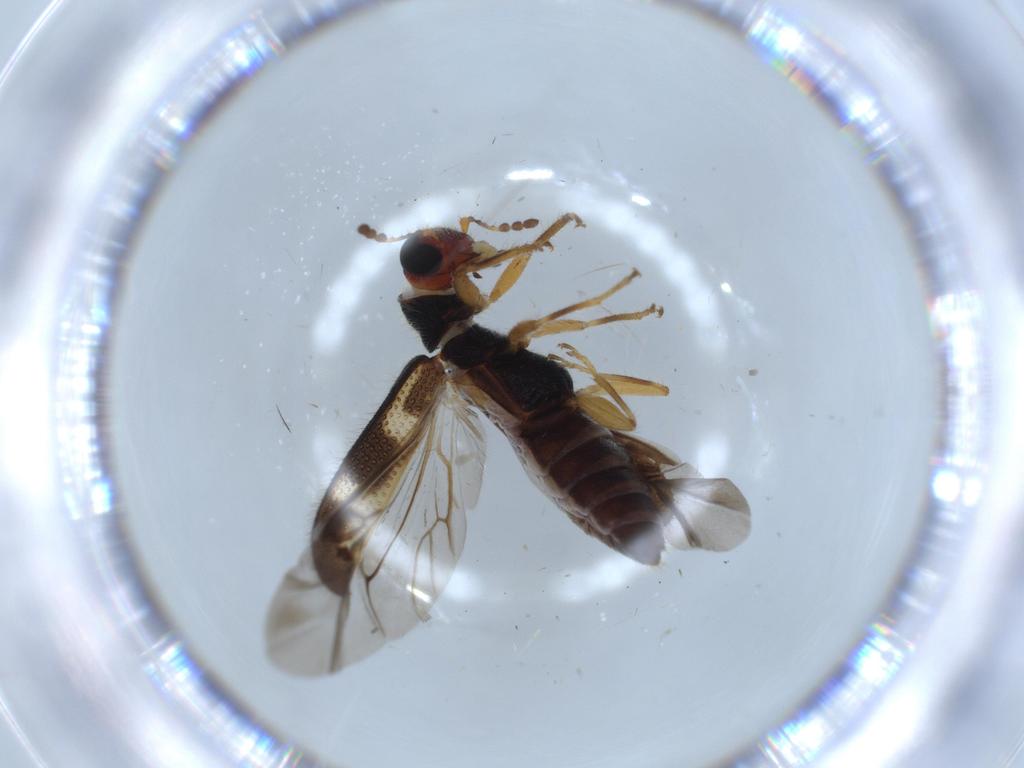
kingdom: Animalia
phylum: Arthropoda
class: Insecta
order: Coleoptera
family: Cleridae
